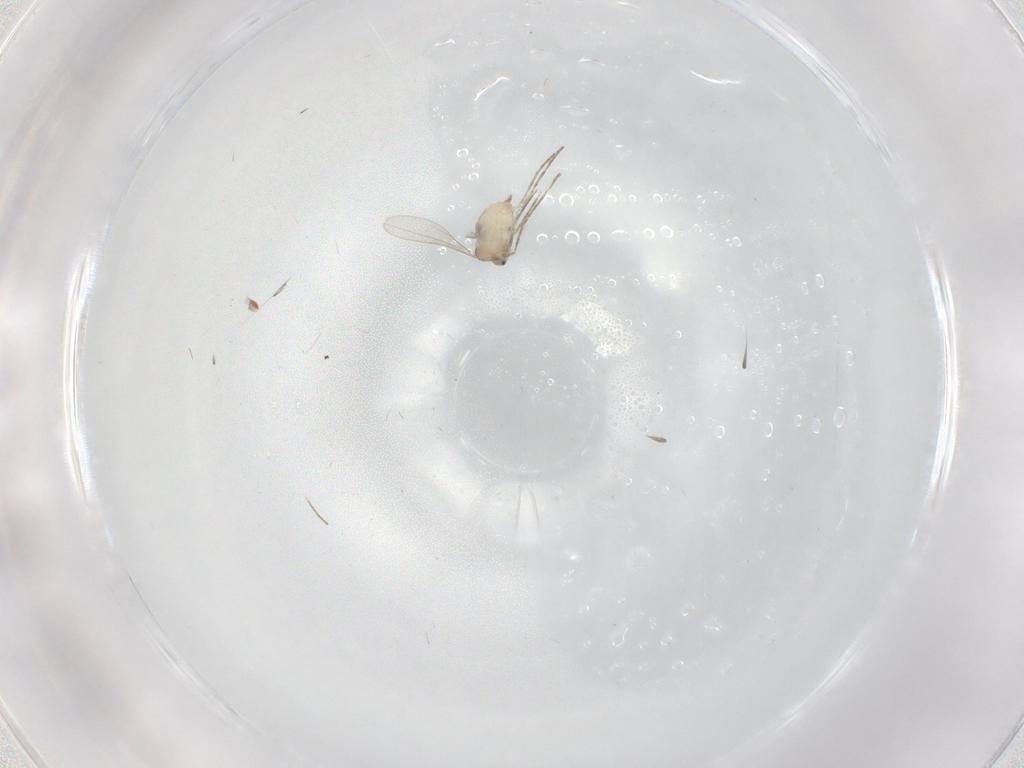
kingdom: Animalia
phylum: Arthropoda
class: Insecta
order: Diptera
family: Cecidomyiidae
